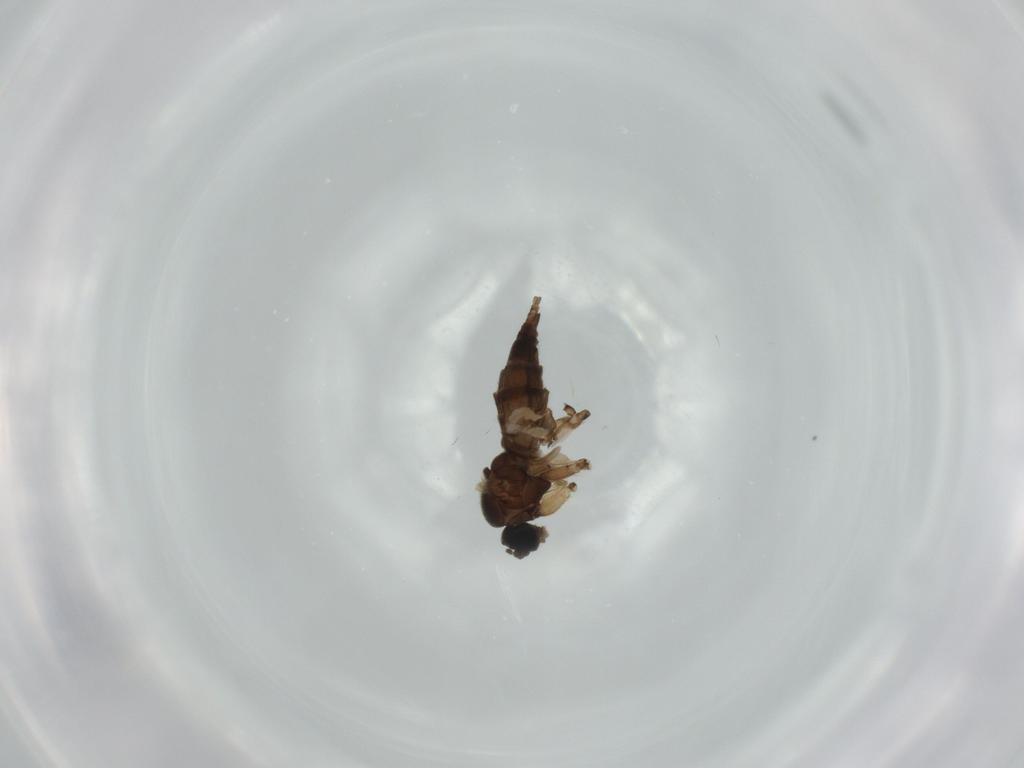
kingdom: Animalia
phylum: Arthropoda
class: Insecta
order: Diptera
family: Sciaridae
